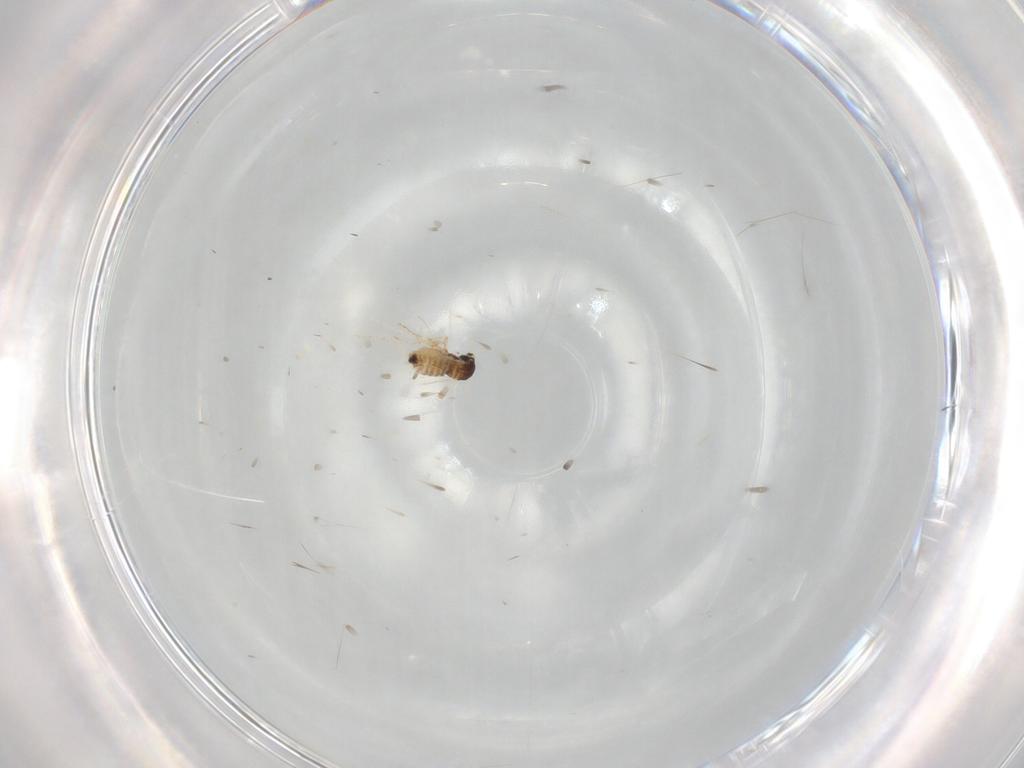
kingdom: Animalia
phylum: Arthropoda
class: Insecta
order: Diptera
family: Cecidomyiidae
